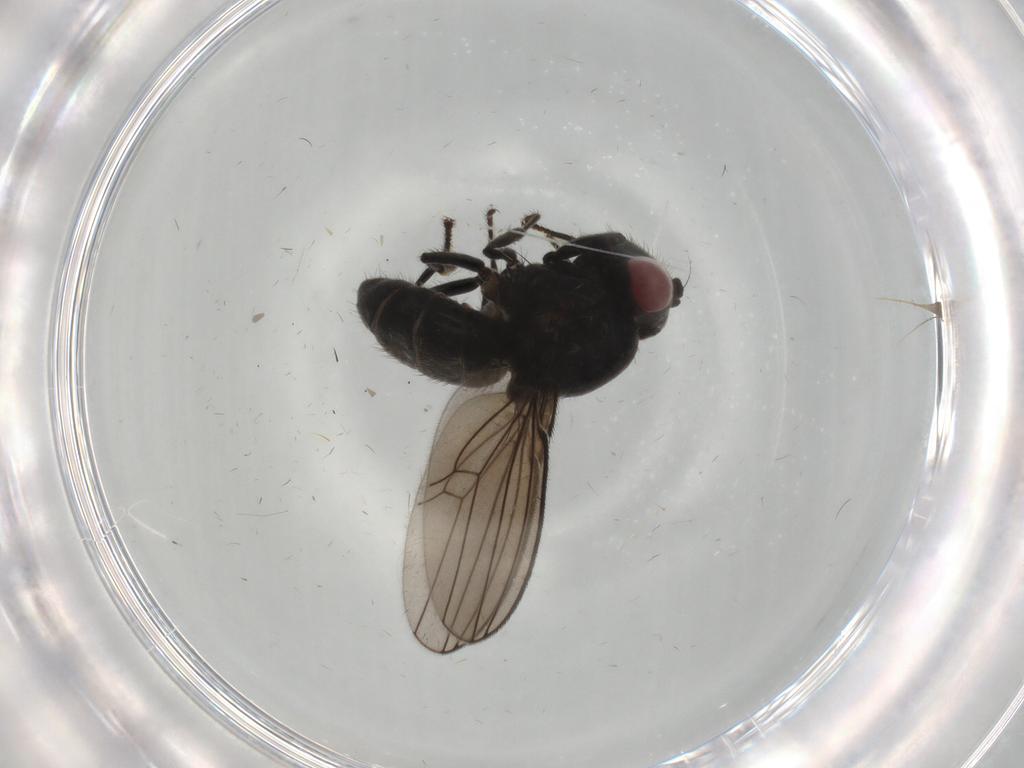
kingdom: Animalia
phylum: Arthropoda
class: Insecta
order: Diptera
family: Ephydridae
